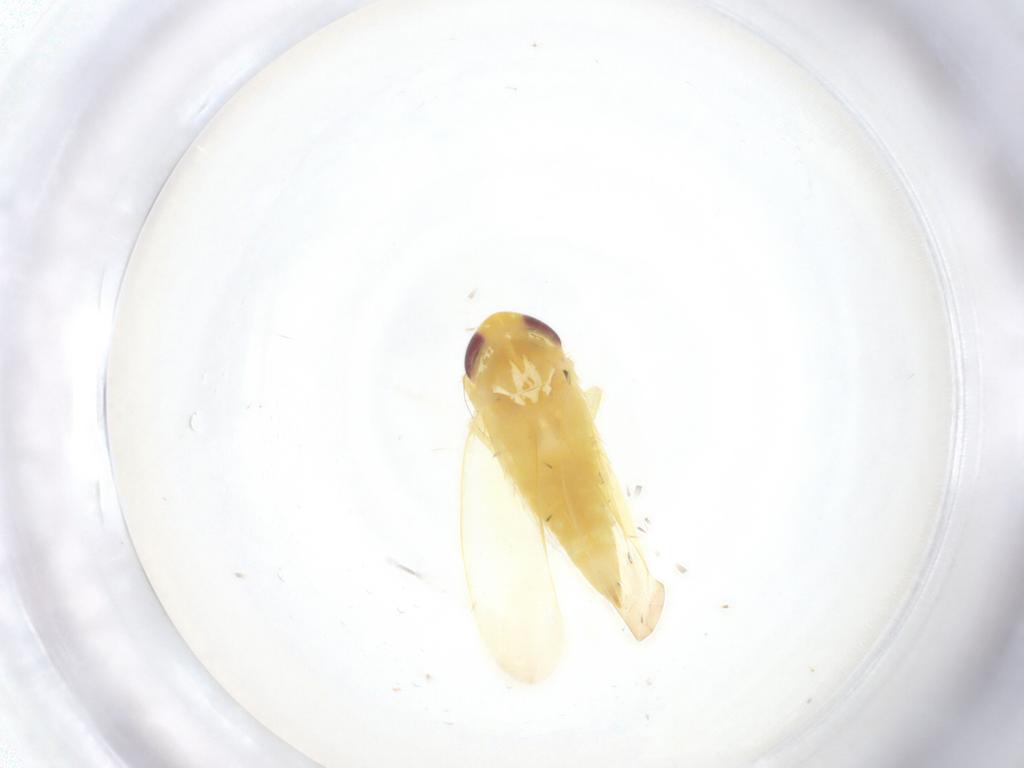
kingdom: Animalia
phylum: Arthropoda
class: Insecta
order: Hemiptera
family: Cicadellidae
